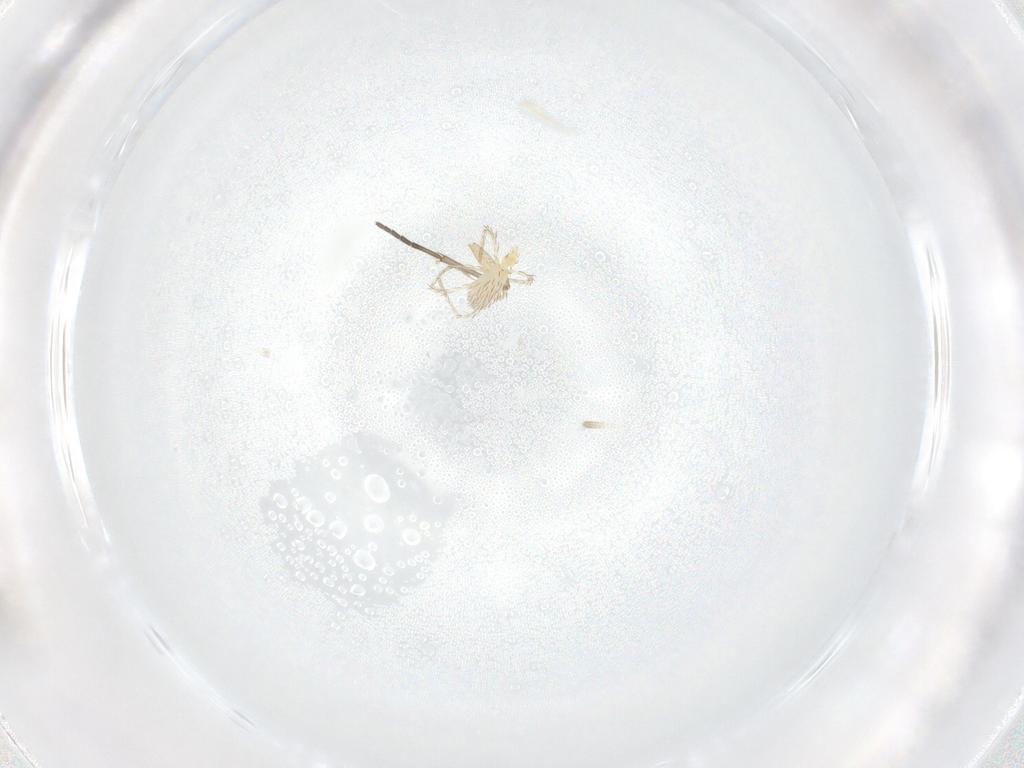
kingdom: Animalia
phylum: Arthropoda
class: Arachnida
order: Trombidiformes
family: Erythraeidae
